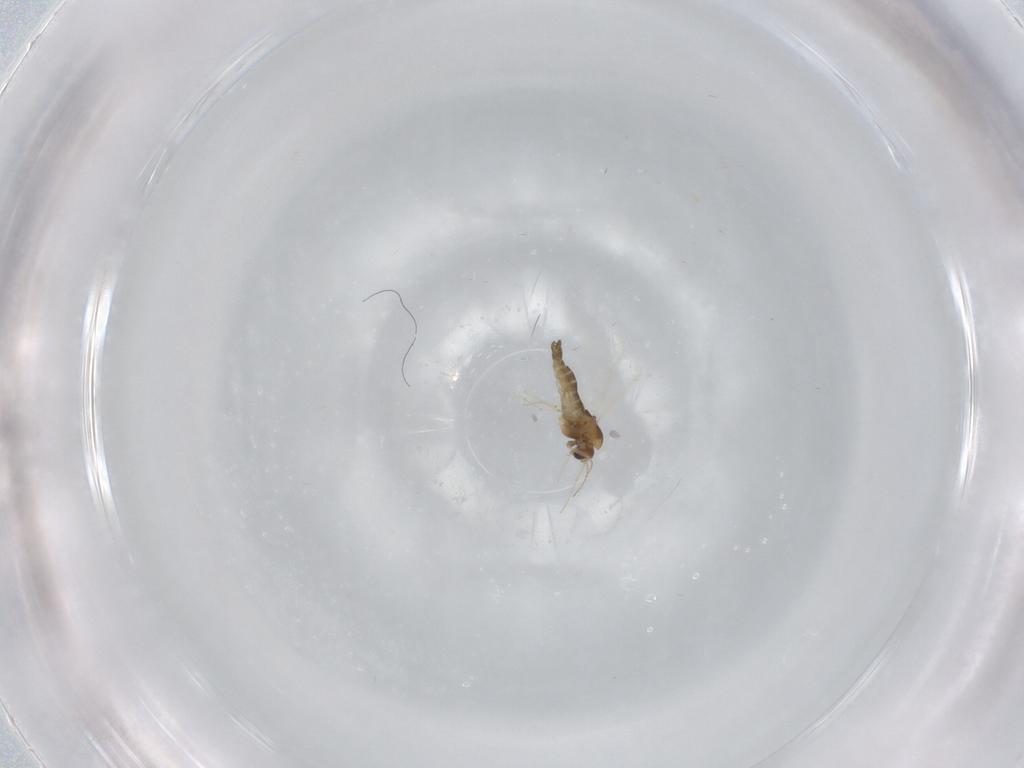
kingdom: Animalia
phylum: Arthropoda
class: Insecta
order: Diptera
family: Chironomidae
